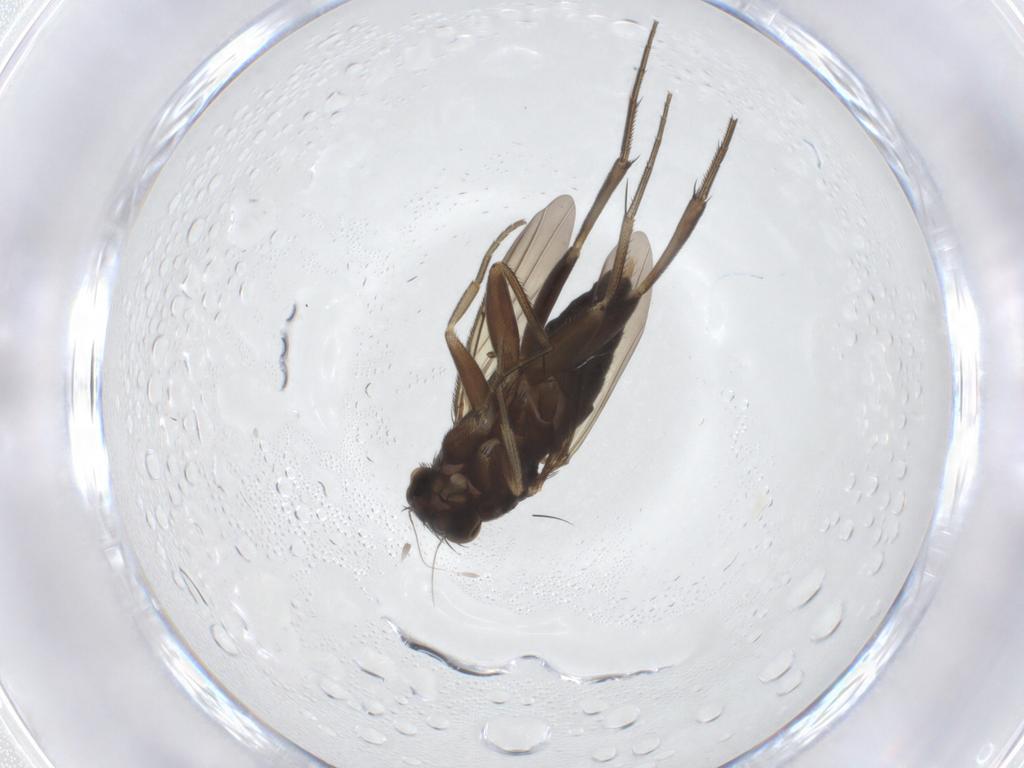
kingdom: Animalia
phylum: Arthropoda
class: Insecta
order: Diptera
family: Phoridae
